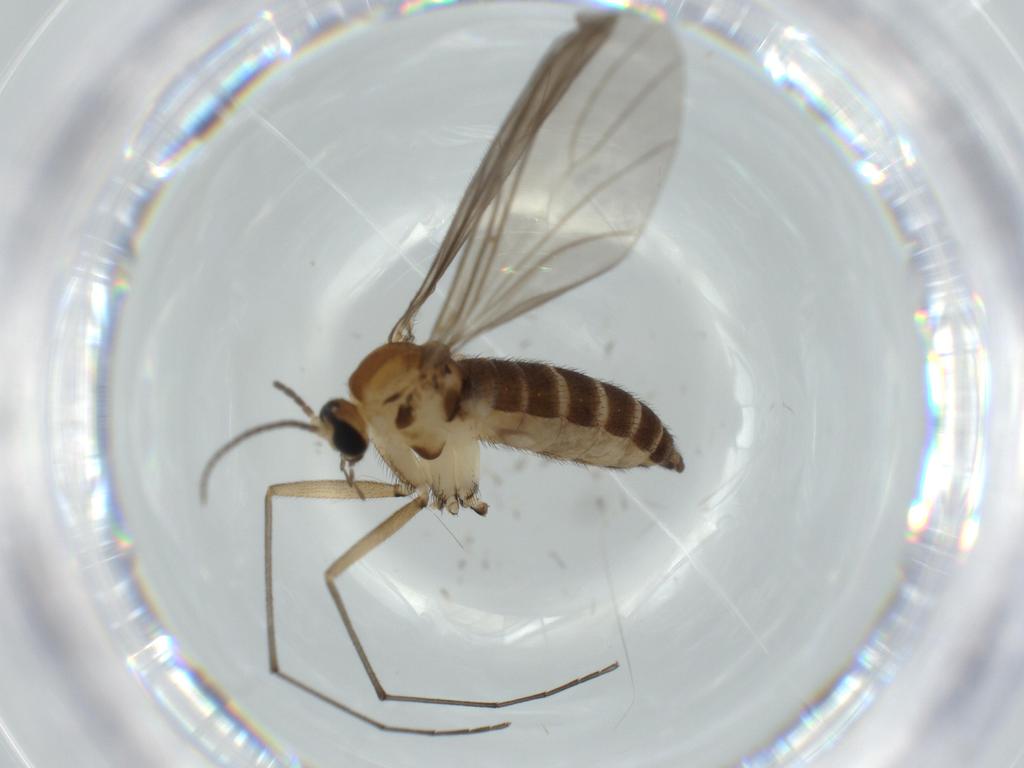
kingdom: Animalia
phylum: Arthropoda
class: Insecta
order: Diptera
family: Sciaridae
